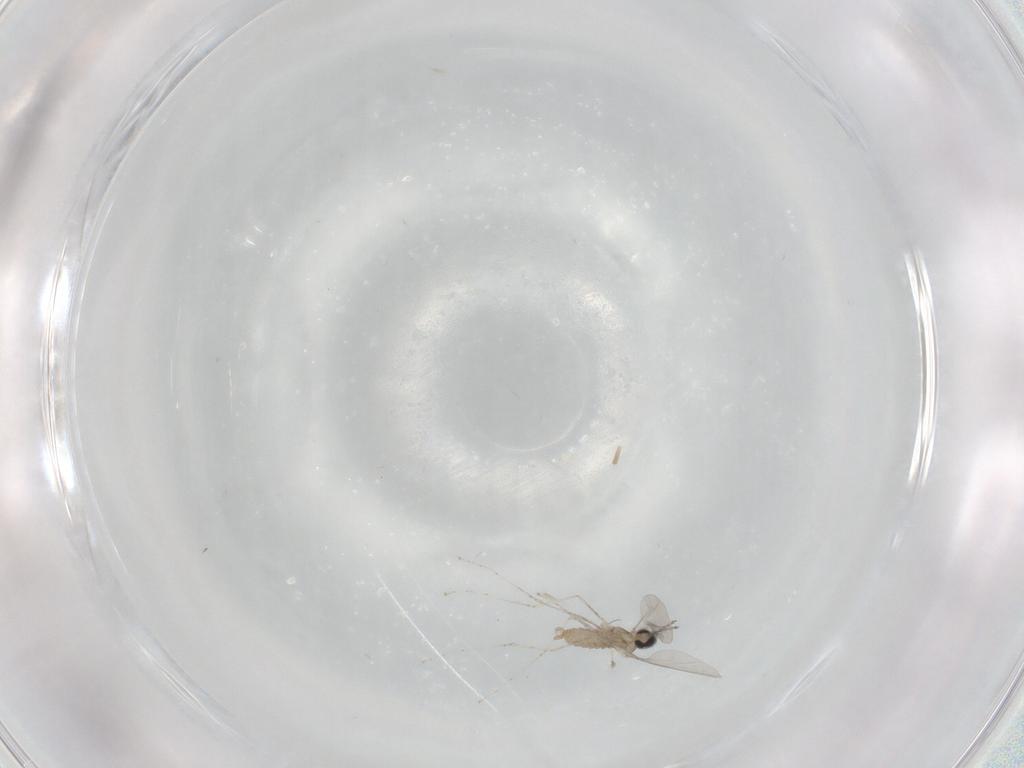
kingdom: Animalia
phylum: Arthropoda
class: Insecta
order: Diptera
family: Cecidomyiidae
